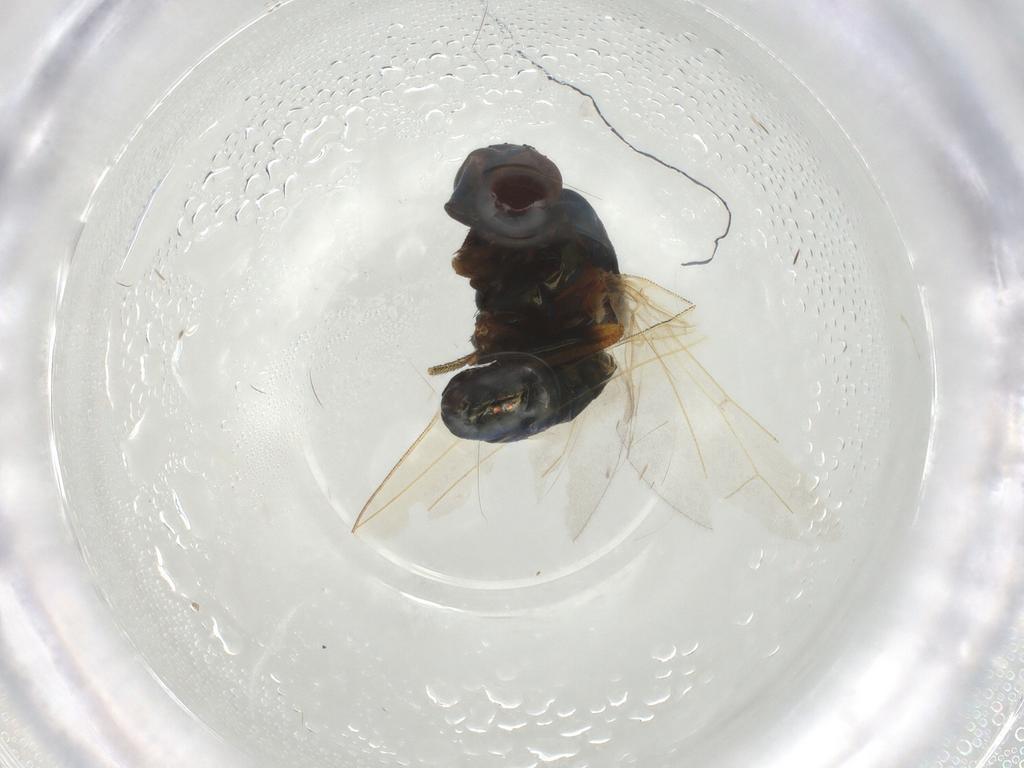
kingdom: Animalia
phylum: Arthropoda
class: Insecta
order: Diptera
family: Lauxaniidae
